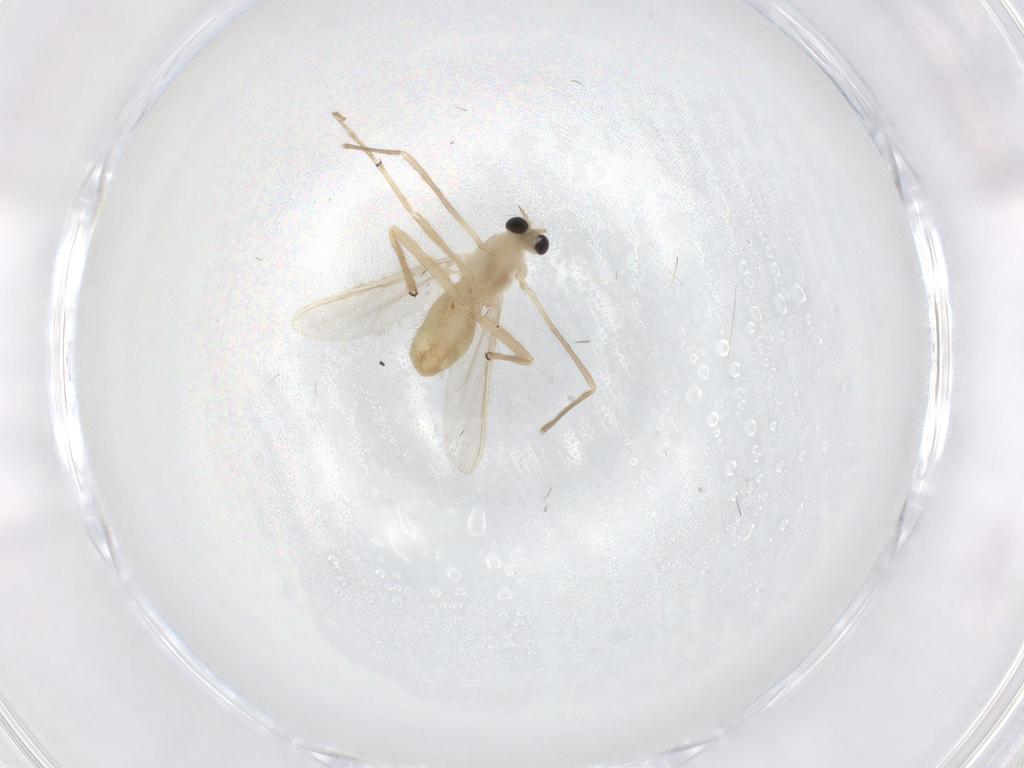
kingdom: Animalia
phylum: Arthropoda
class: Insecta
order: Diptera
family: Chironomidae
